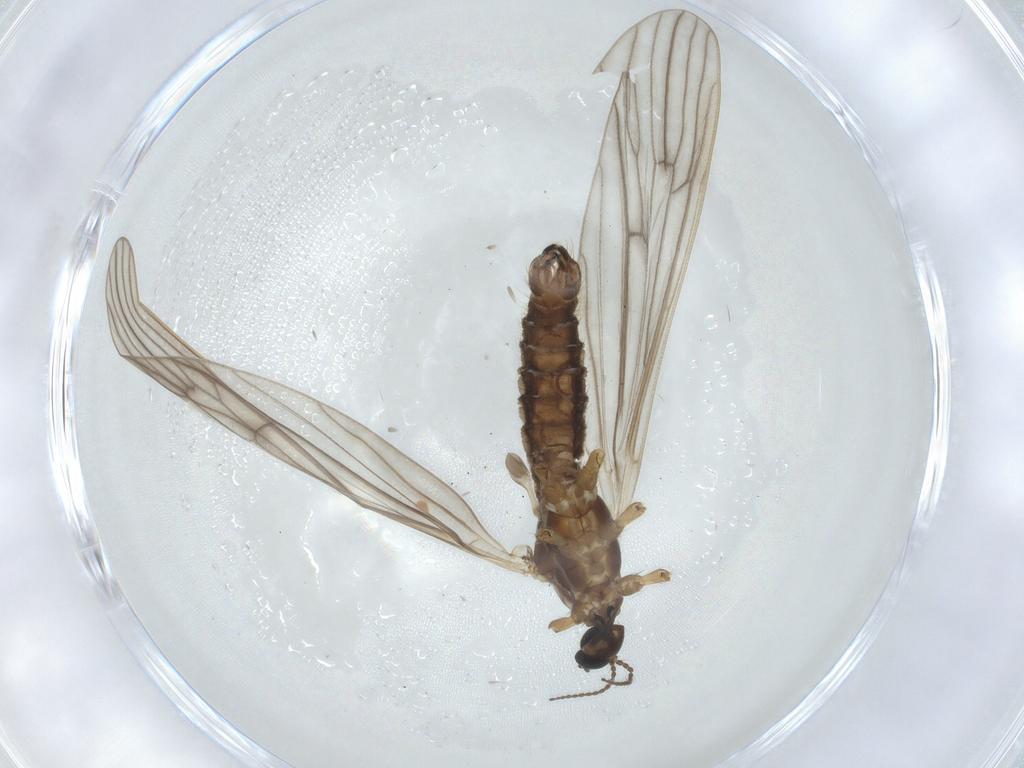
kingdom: Animalia
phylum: Arthropoda
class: Insecta
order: Diptera
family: Limoniidae
